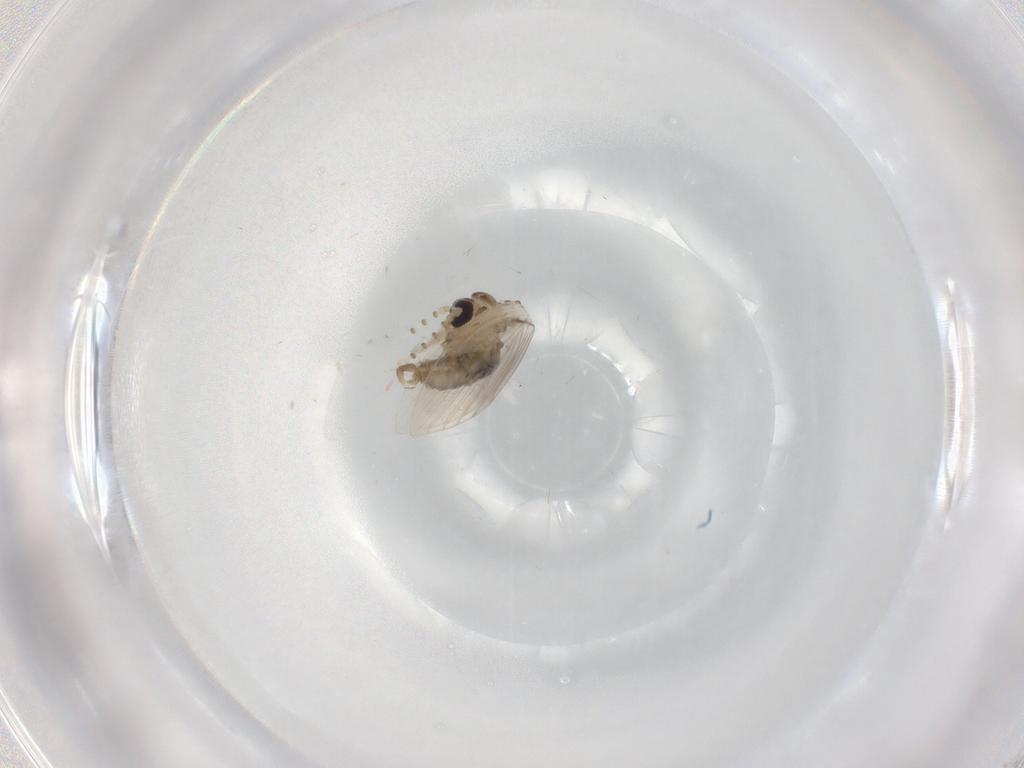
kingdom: Animalia
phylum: Arthropoda
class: Insecta
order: Diptera
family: Psychodidae
